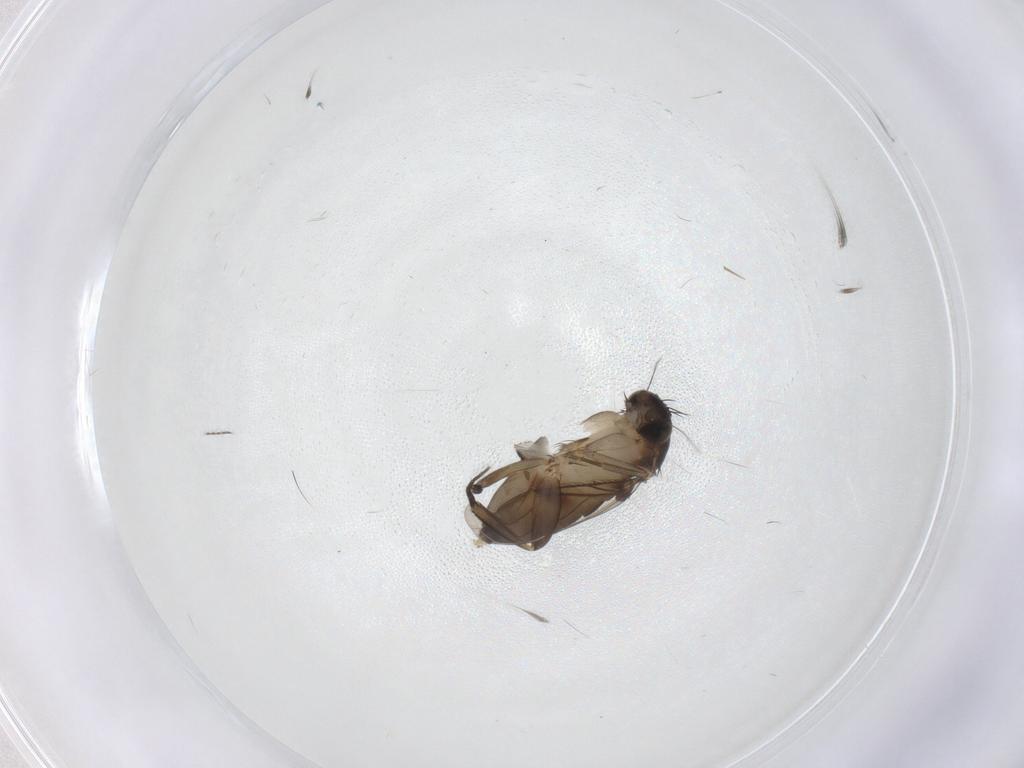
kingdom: Animalia
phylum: Arthropoda
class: Insecta
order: Diptera
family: Phoridae
